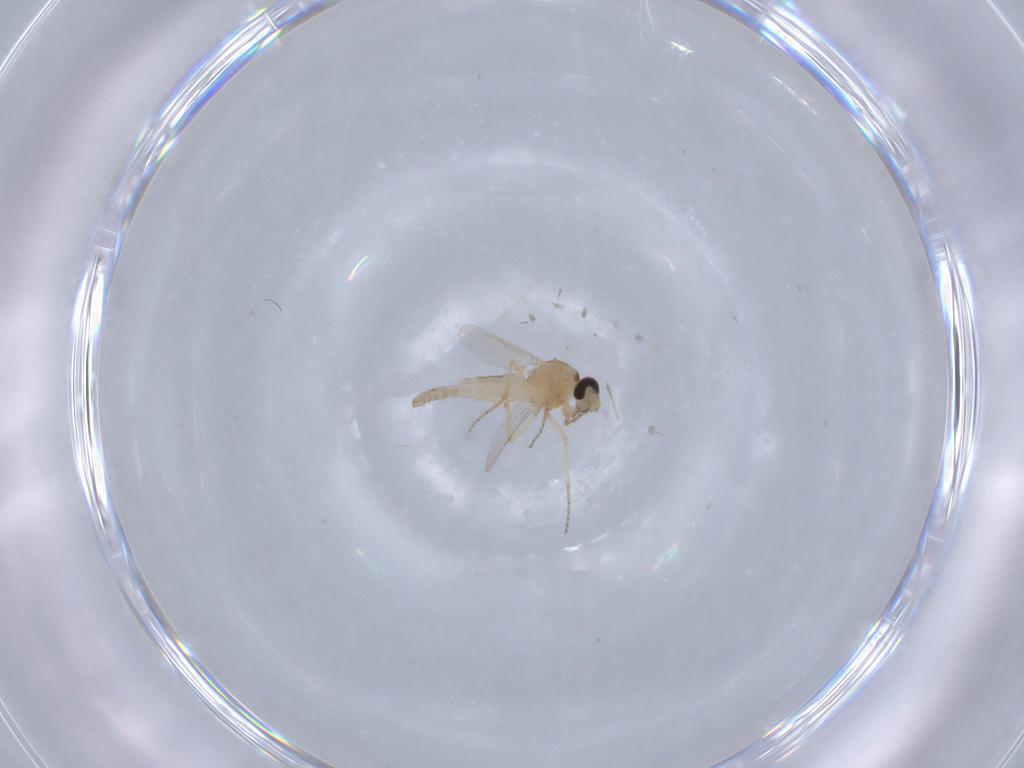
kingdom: Animalia
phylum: Arthropoda
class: Insecta
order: Diptera
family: Ceratopogonidae
